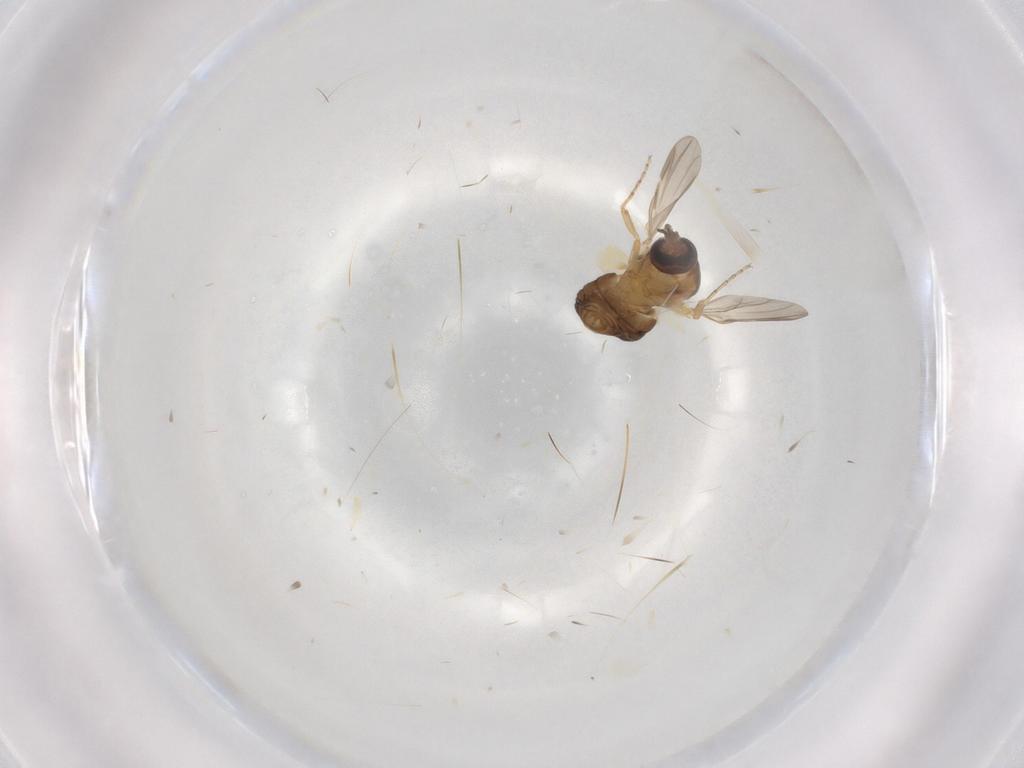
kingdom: Animalia
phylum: Arthropoda
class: Insecta
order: Diptera
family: Ceratopogonidae
